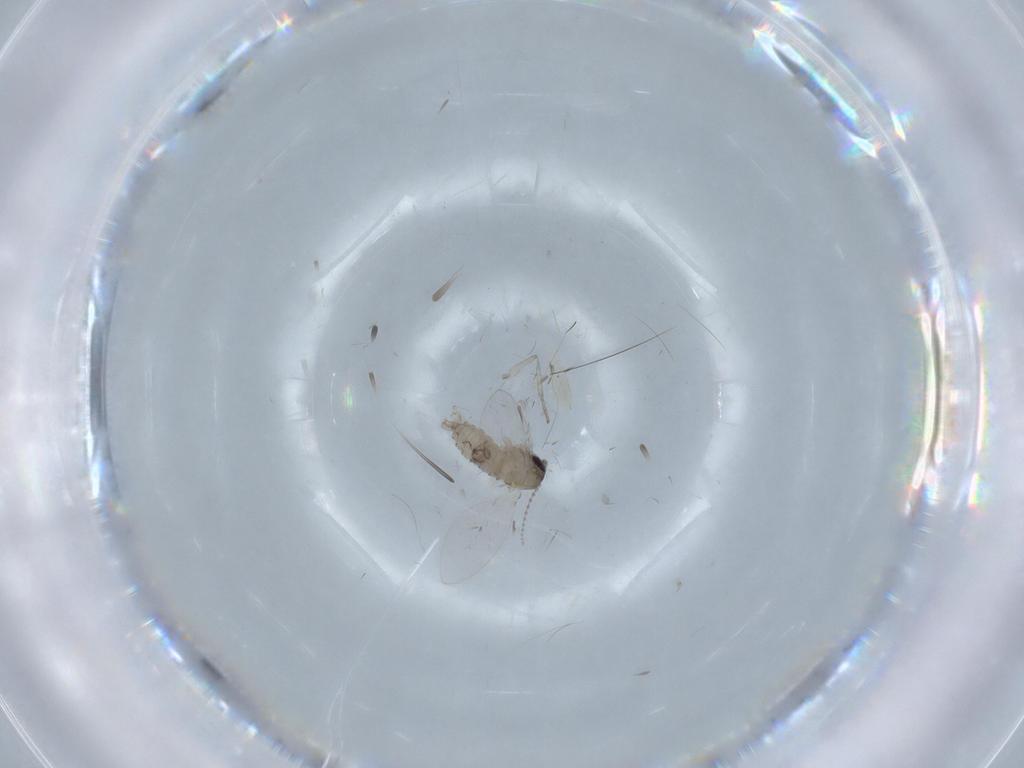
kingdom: Animalia
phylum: Arthropoda
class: Insecta
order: Diptera
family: Psychodidae
